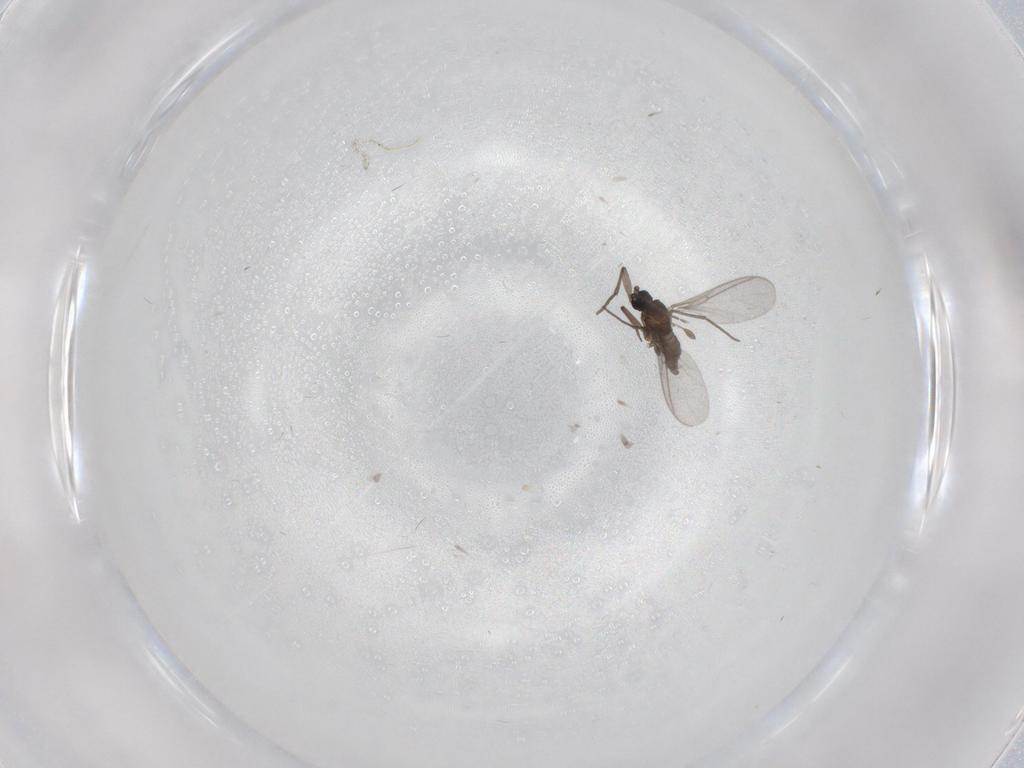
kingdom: Animalia
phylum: Arthropoda
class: Insecta
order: Diptera
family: Sciaridae
